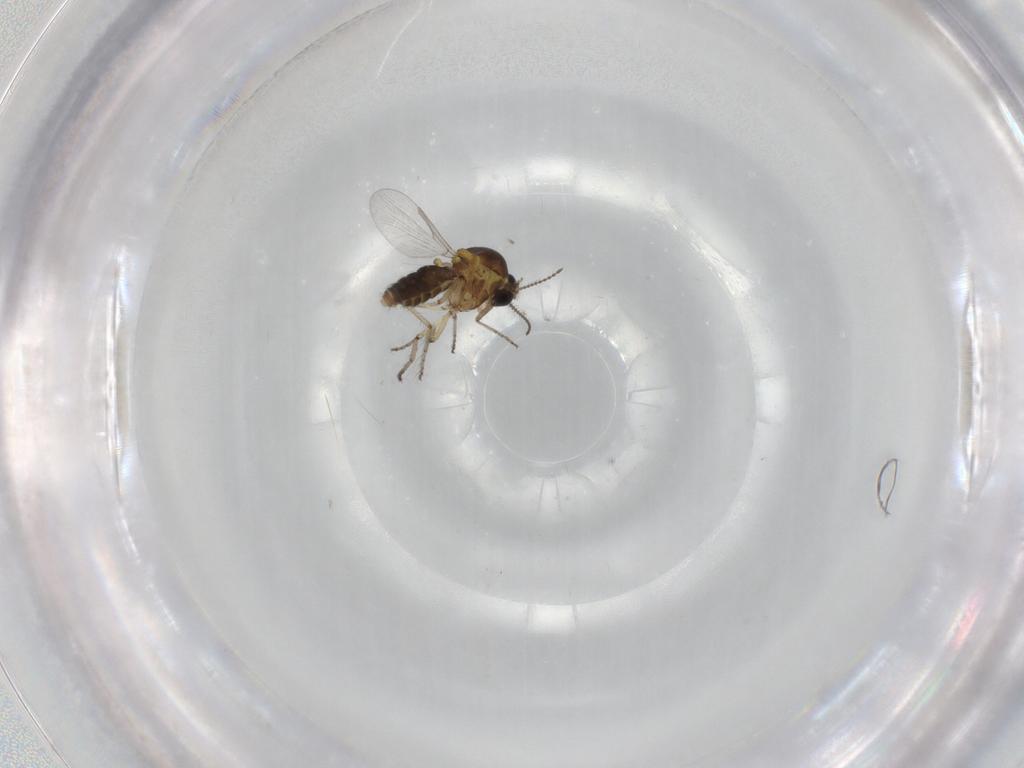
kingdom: Animalia
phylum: Arthropoda
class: Insecta
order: Diptera
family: Ceratopogonidae
